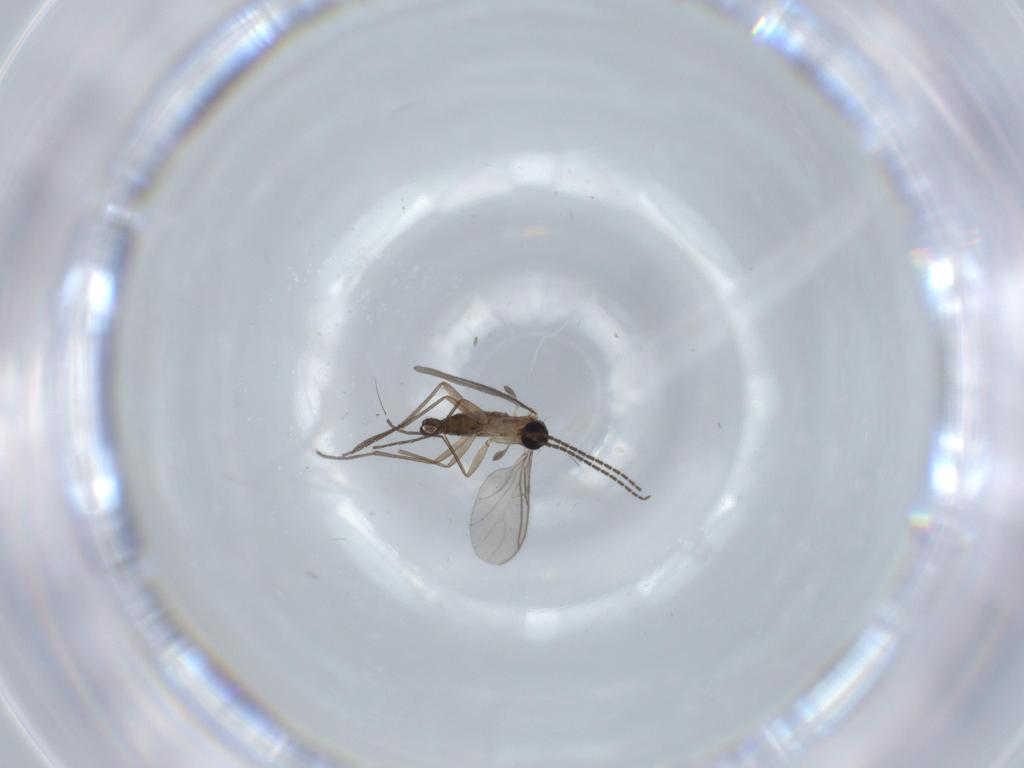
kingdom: Animalia
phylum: Arthropoda
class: Insecta
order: Diptera
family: Sciaridae
